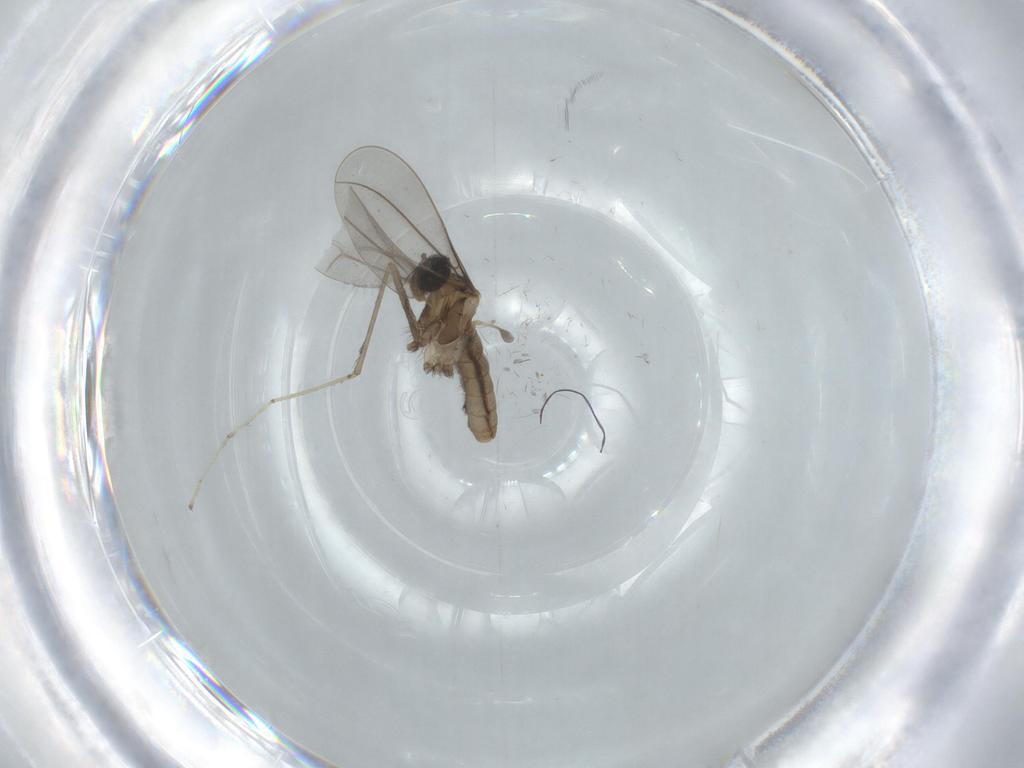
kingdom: Animalia
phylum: Arthropoda
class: Insecta
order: Diptera
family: Cecidomyiidae
